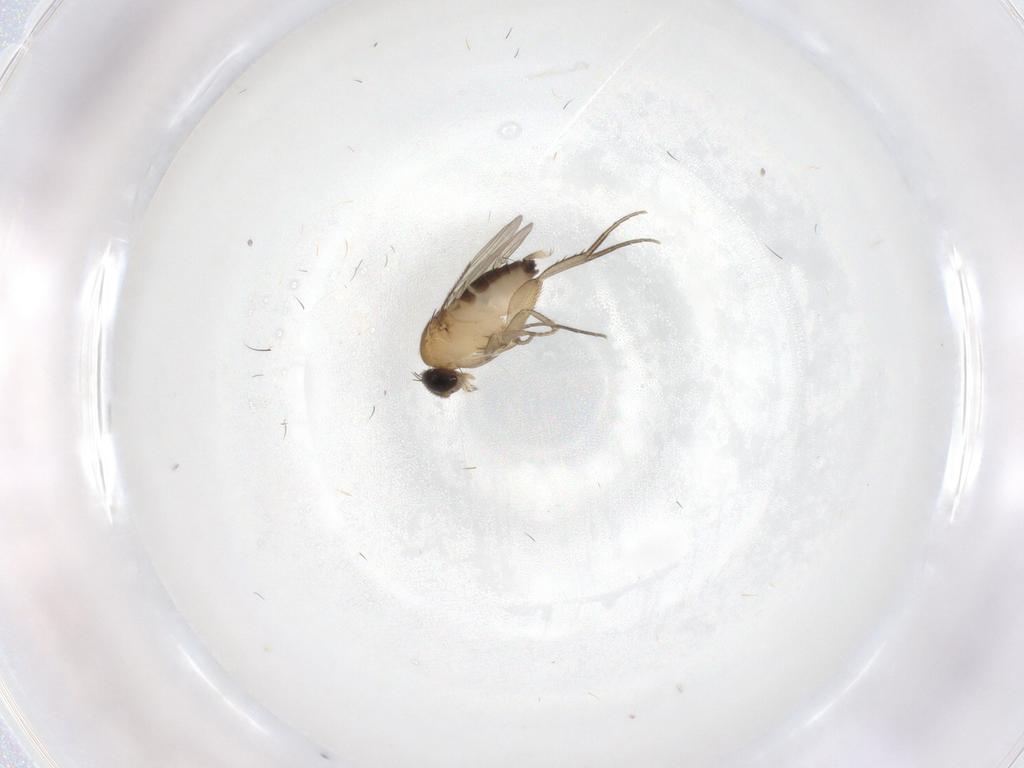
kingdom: Animalia
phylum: Arthropoda
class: Insecta
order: Diptera
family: Phoridae
